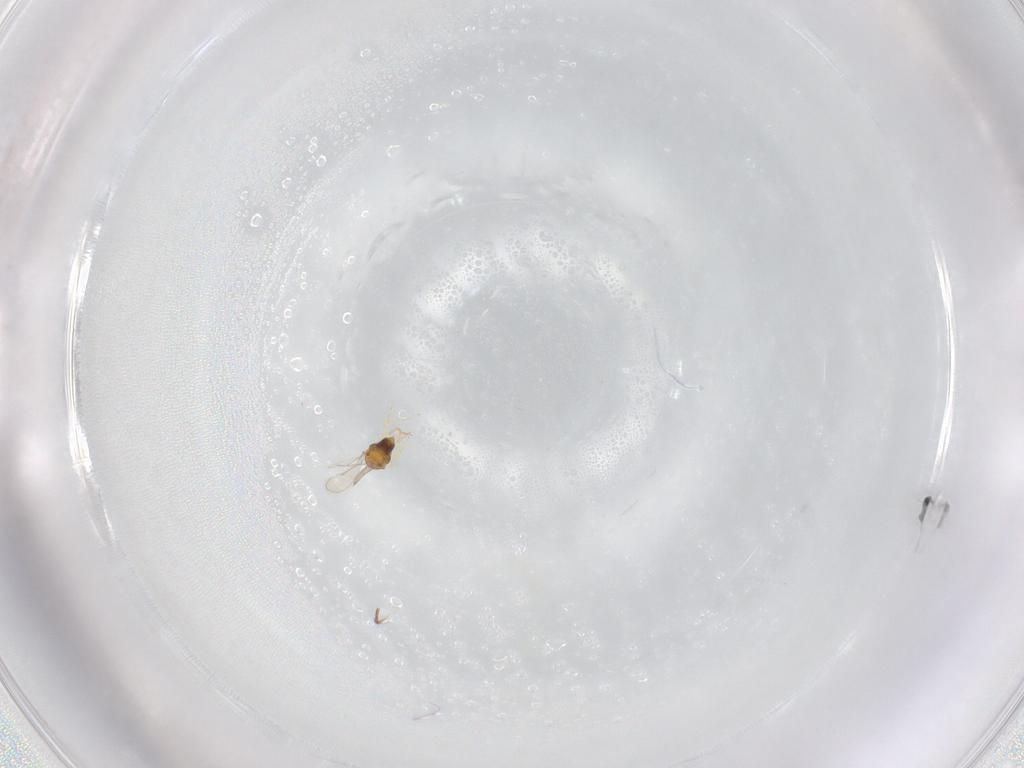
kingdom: Animalia
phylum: Arthropoda
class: Insecta
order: Hymenoptera
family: Aphelinidae
